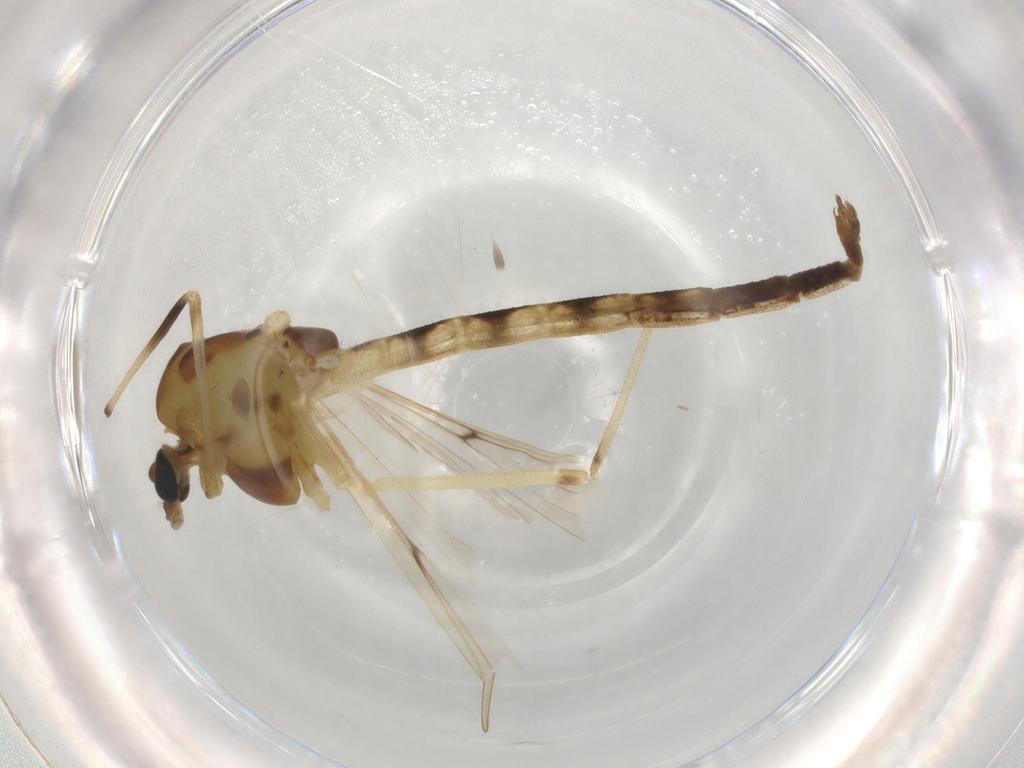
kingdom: Animalia
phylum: Arthropoda
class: Insecta
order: Diptera
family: Chironomidae
